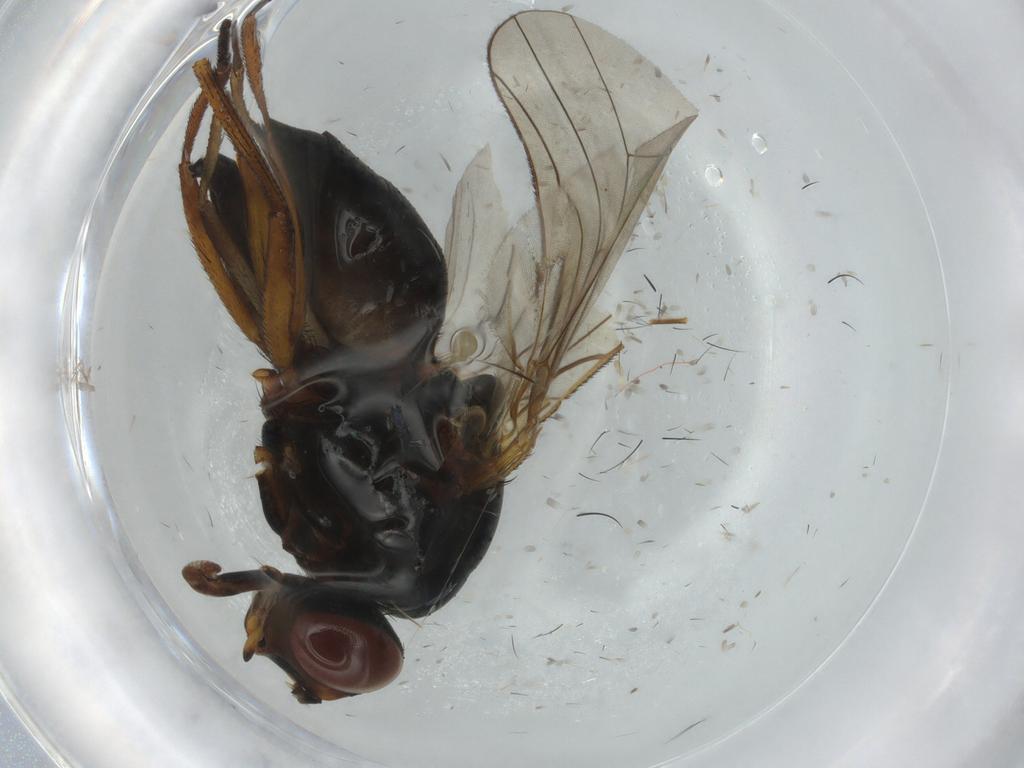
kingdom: Animalia
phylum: Arthropoda
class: Insecta
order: Diptera
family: Anthomyiidae
